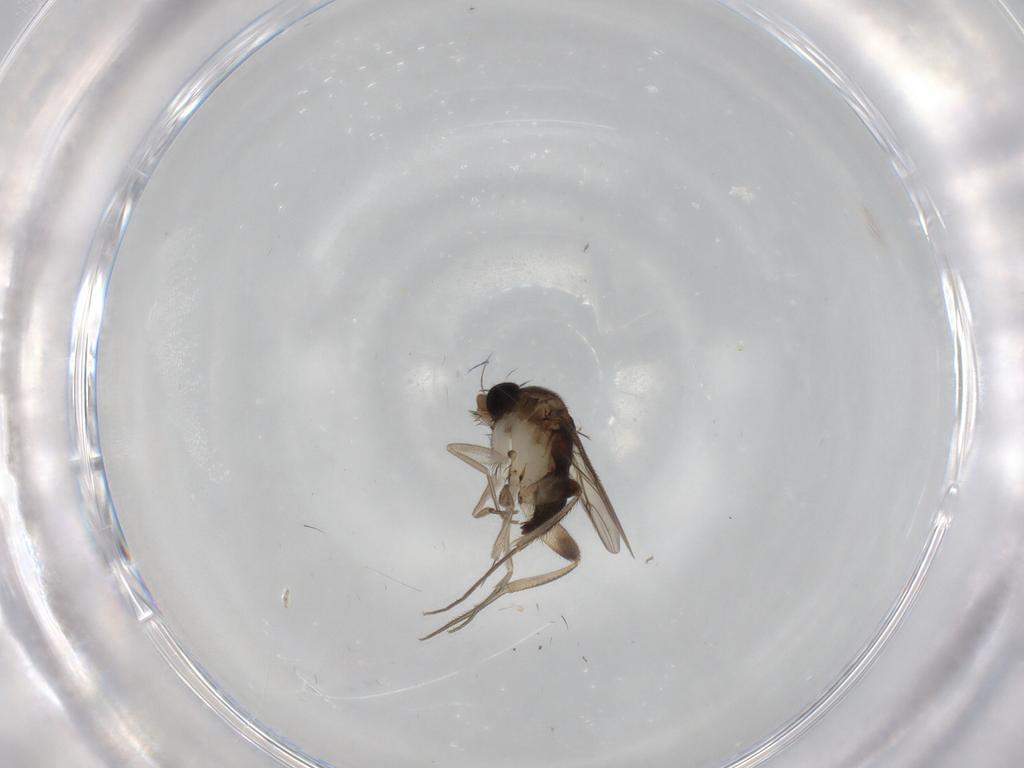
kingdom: Animalia
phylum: Arthropoda
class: Insecta
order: Diptera
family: Phoridae
